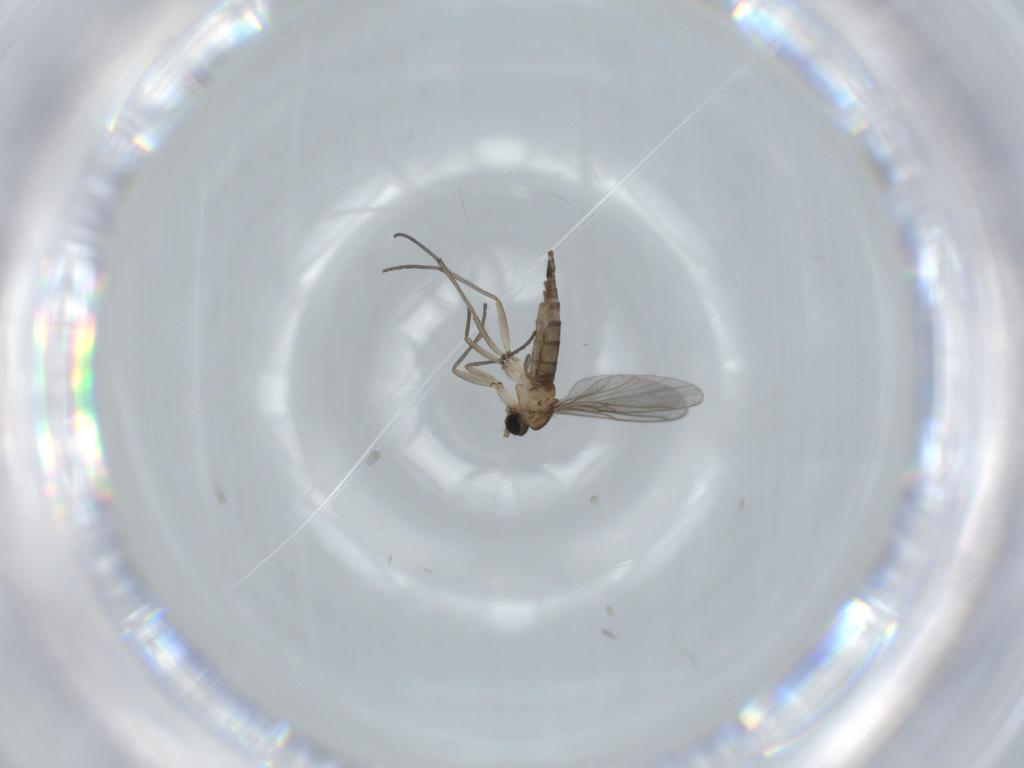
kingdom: Animalia
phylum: Arthropoda
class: Insecta
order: Diptera
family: Sciaridae
